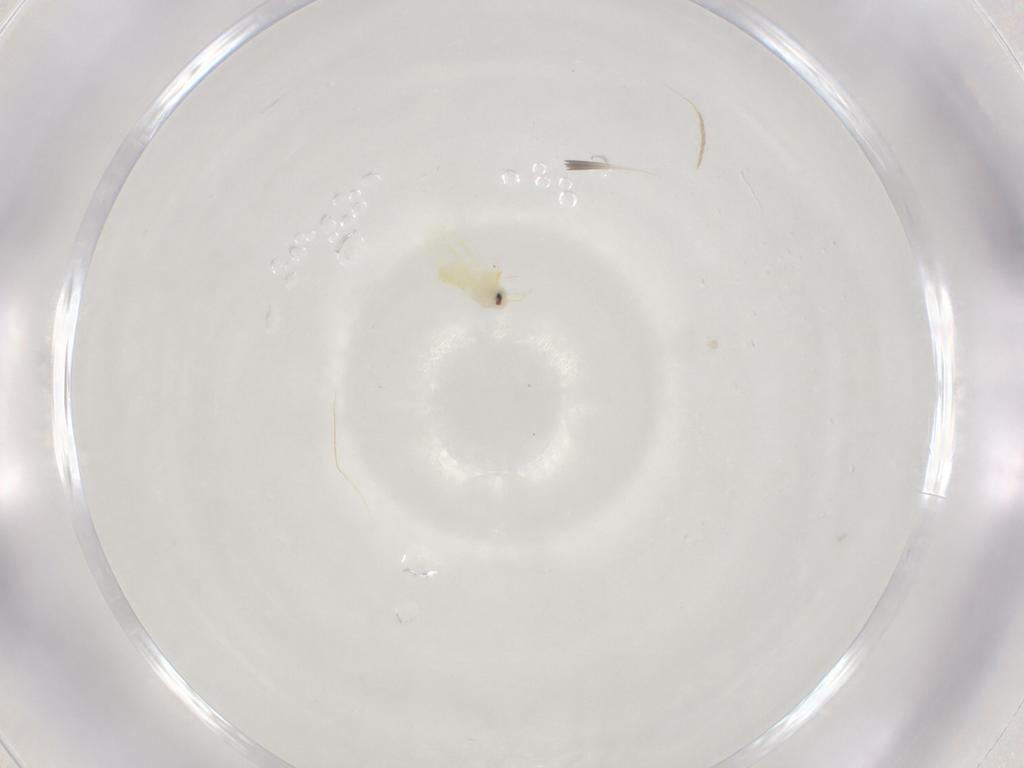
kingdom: Animalia
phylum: Arthropoda
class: Insecta
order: Hemiptera
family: Aleyrodidae
